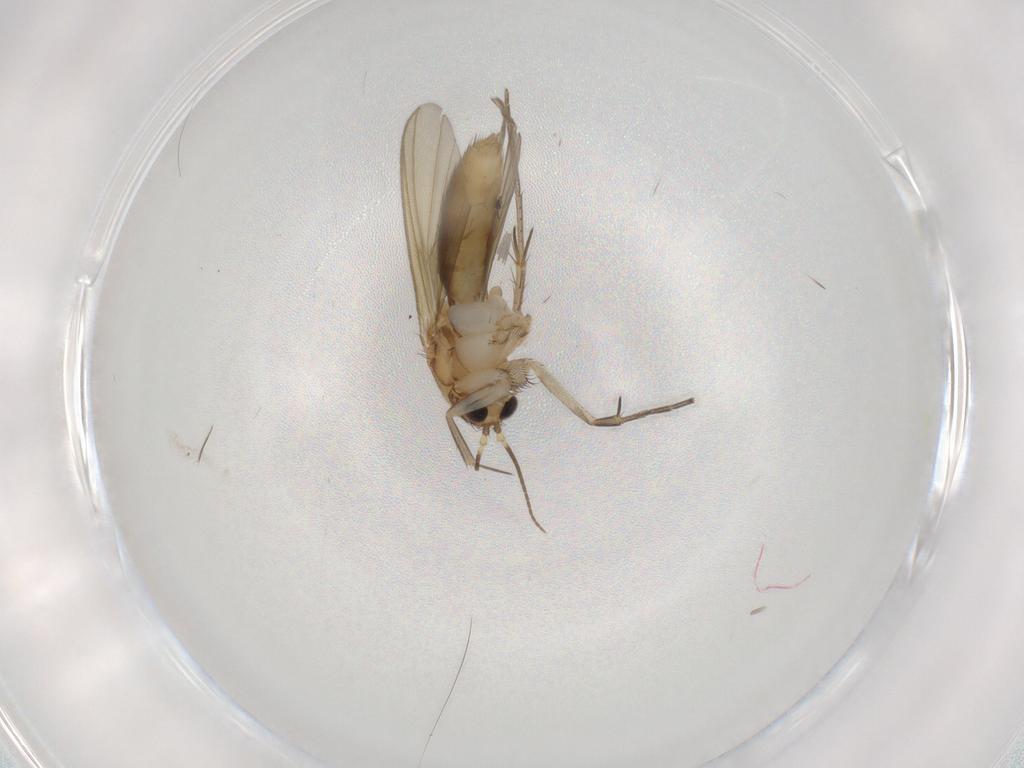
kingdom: Animalia
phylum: Arthropoda
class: Insecta
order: Diptera
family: Mycetophilidae
